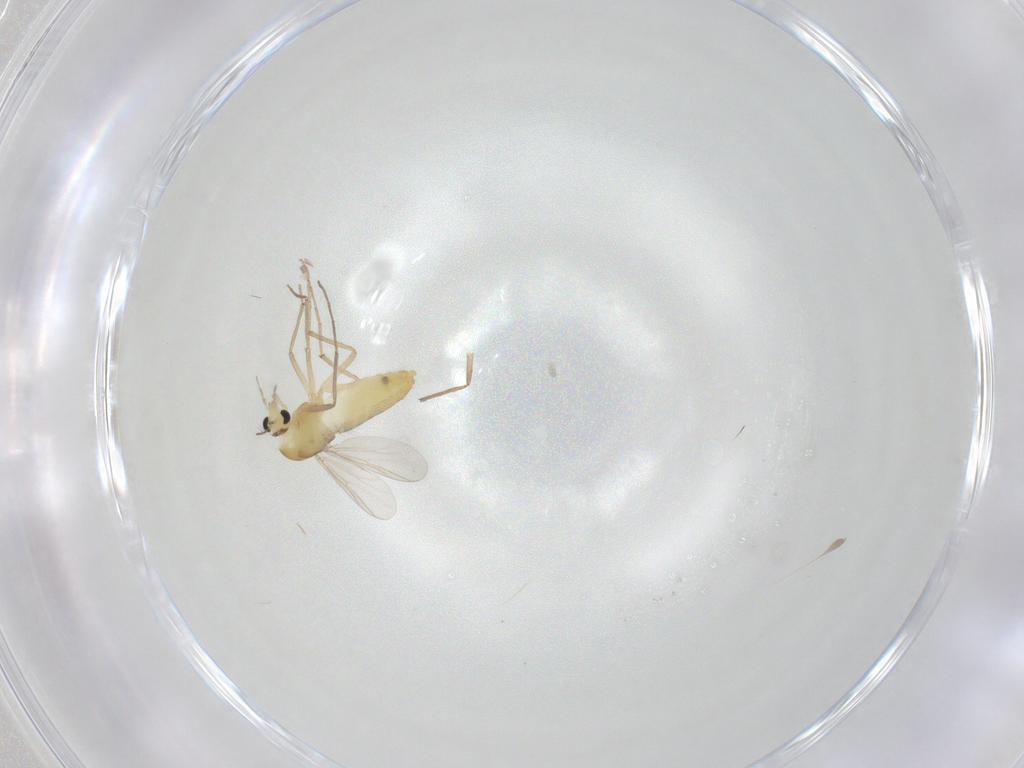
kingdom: Animalia
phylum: Arthropoda
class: Insecta
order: Diptera
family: Chironomidae
